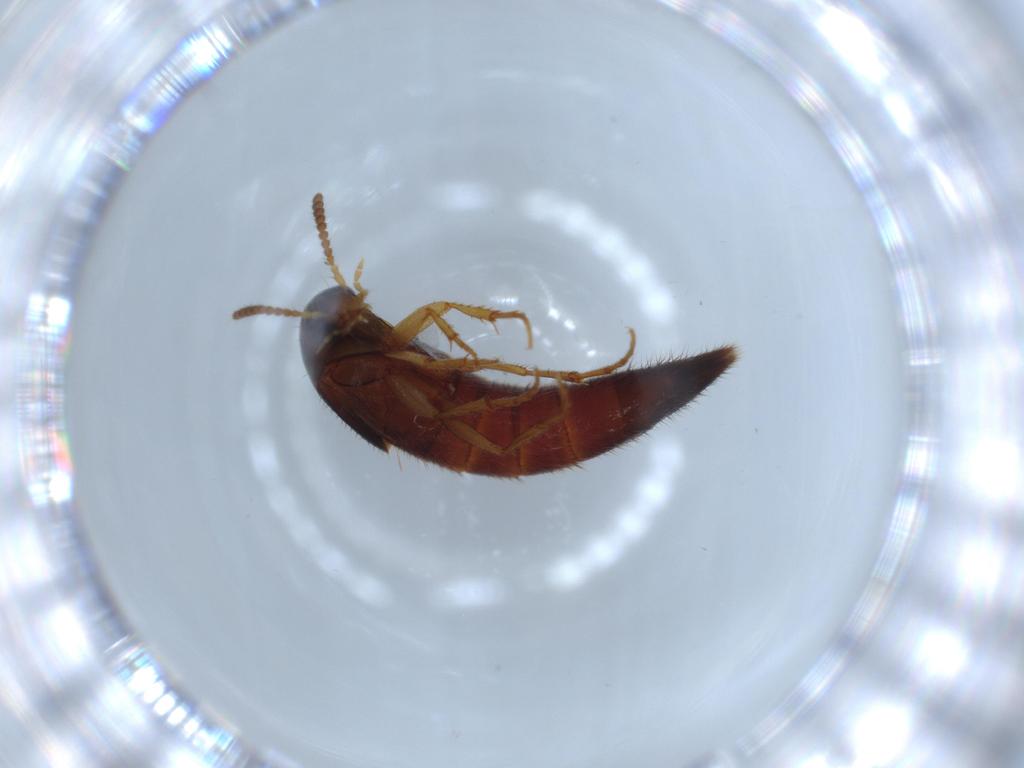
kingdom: Animalia
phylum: Arthropoda
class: Insecta
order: Coleoptera
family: Staphylinidae
